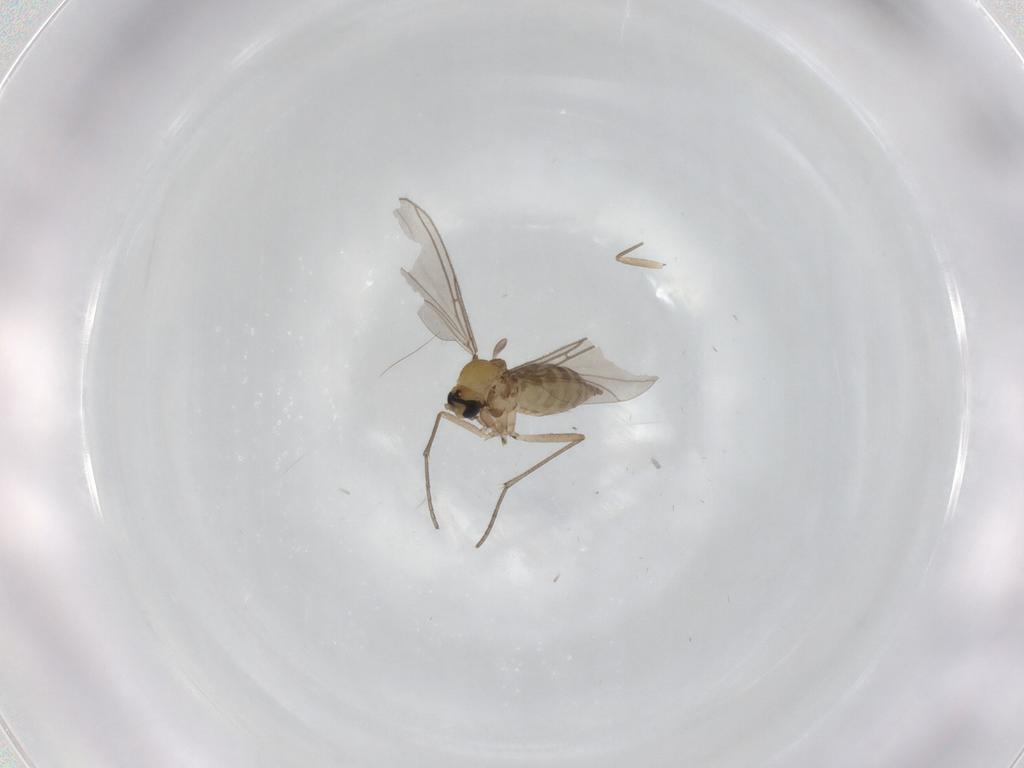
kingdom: Animalia
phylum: Arthropoda
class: Insecta
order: Diptera
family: Sciaridae
